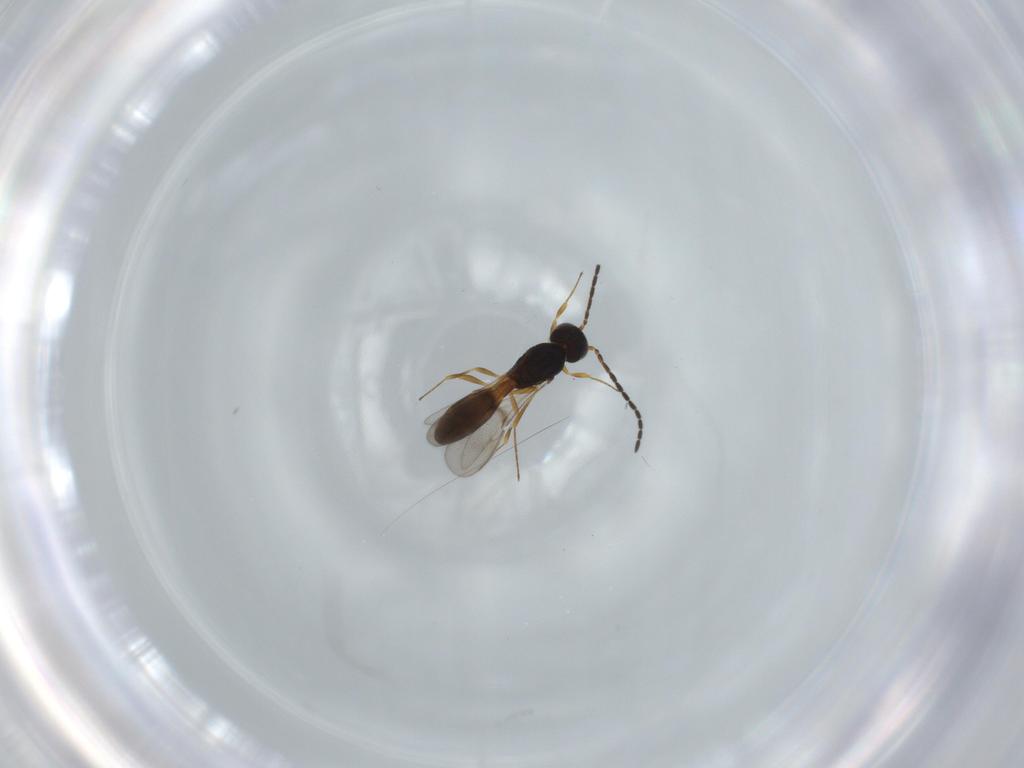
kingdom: Animalia
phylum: Arthropoda
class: Insecta
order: Hymenoptera
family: Scelionidae
